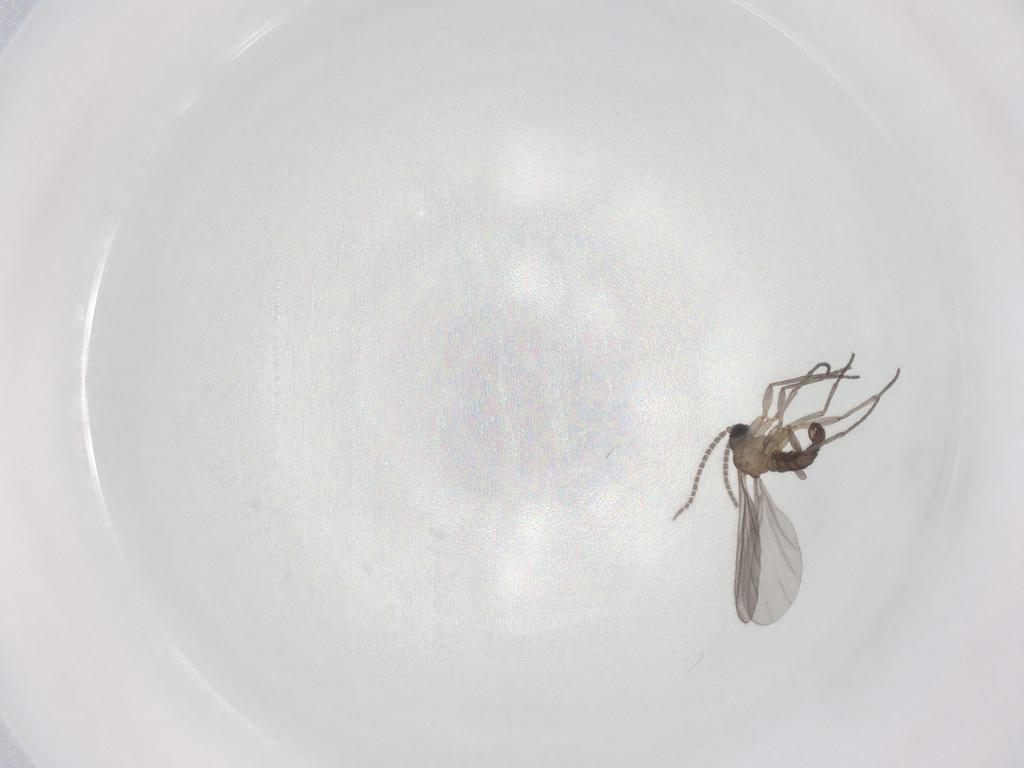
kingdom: Animalia
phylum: Arthropoda
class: Insecta
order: Diptera
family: Sciaridae
